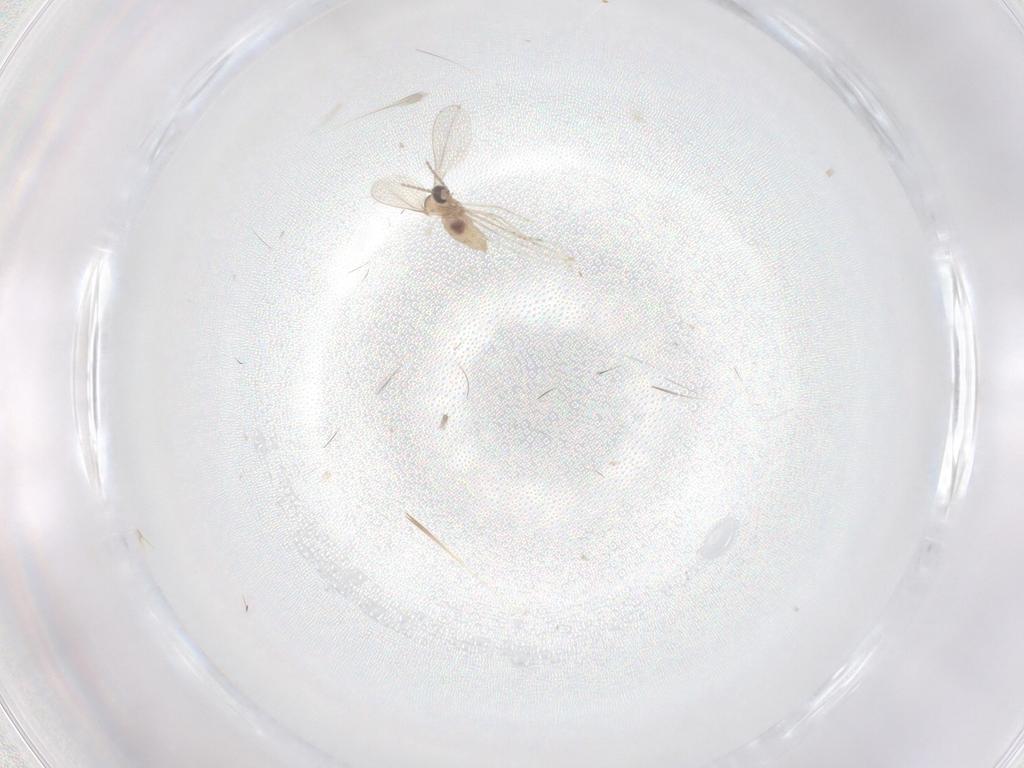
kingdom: Animalia
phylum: Arthropoda
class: Insecta
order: Diptera
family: Cecidomyiidae
